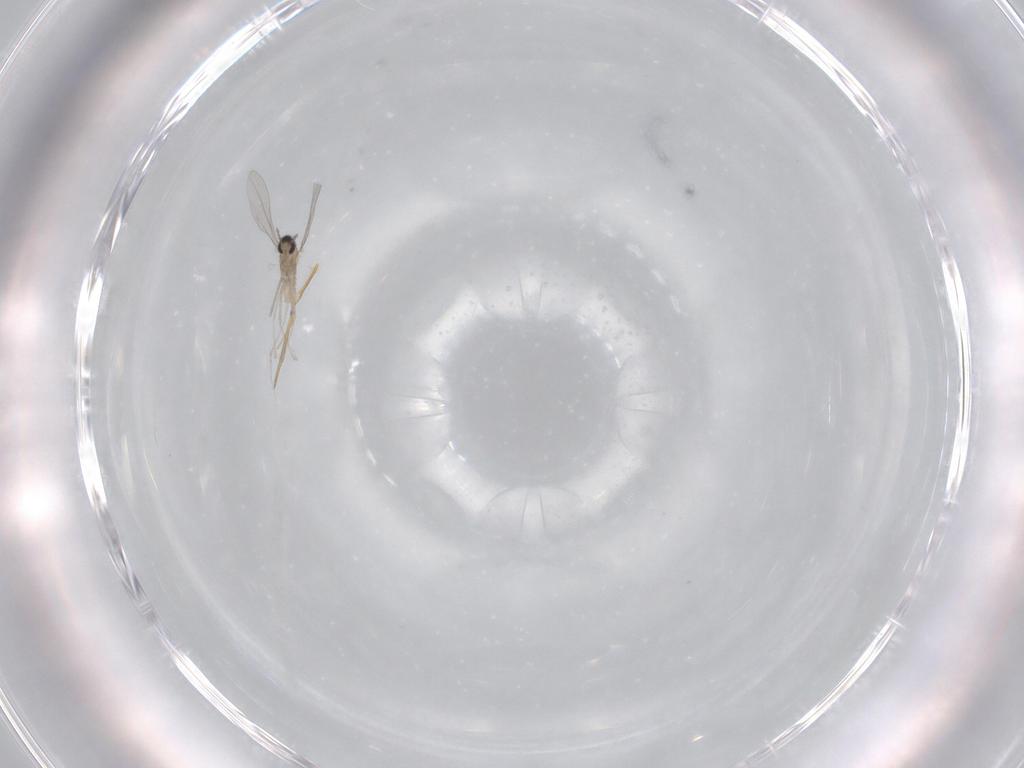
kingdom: Animalia
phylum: Arthropoda
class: Insecta
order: Diptera
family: Cecidomyiidae
